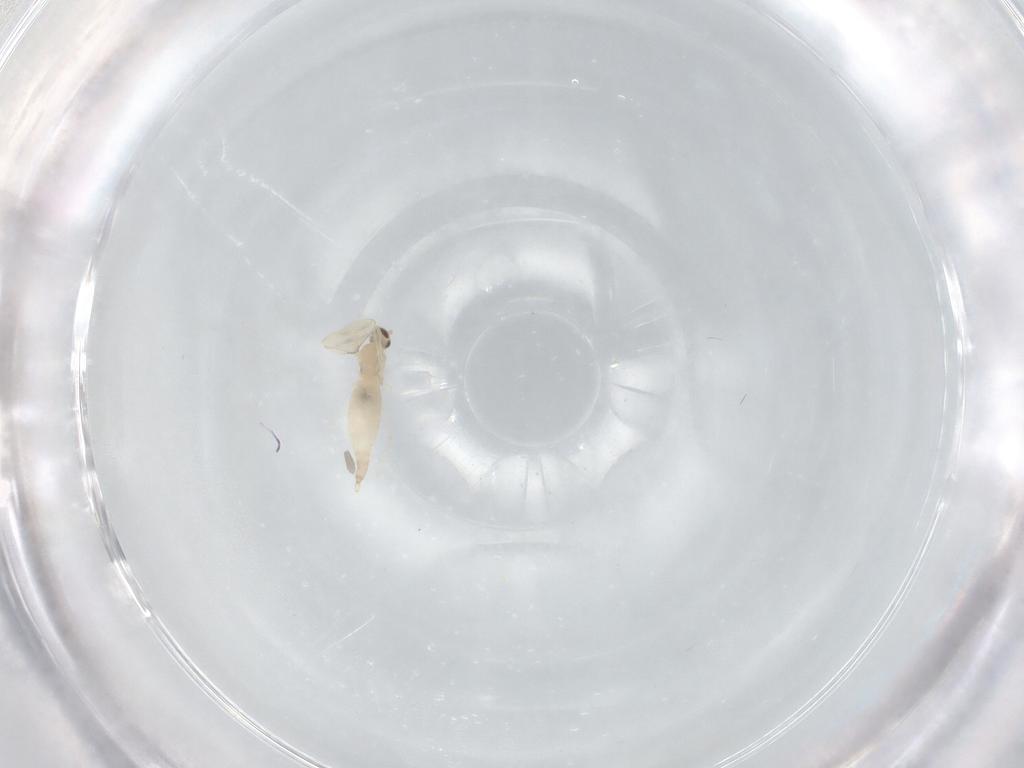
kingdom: Animalia
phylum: Arthropoda
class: Insecta
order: Diptera
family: Cecidomyiidae
